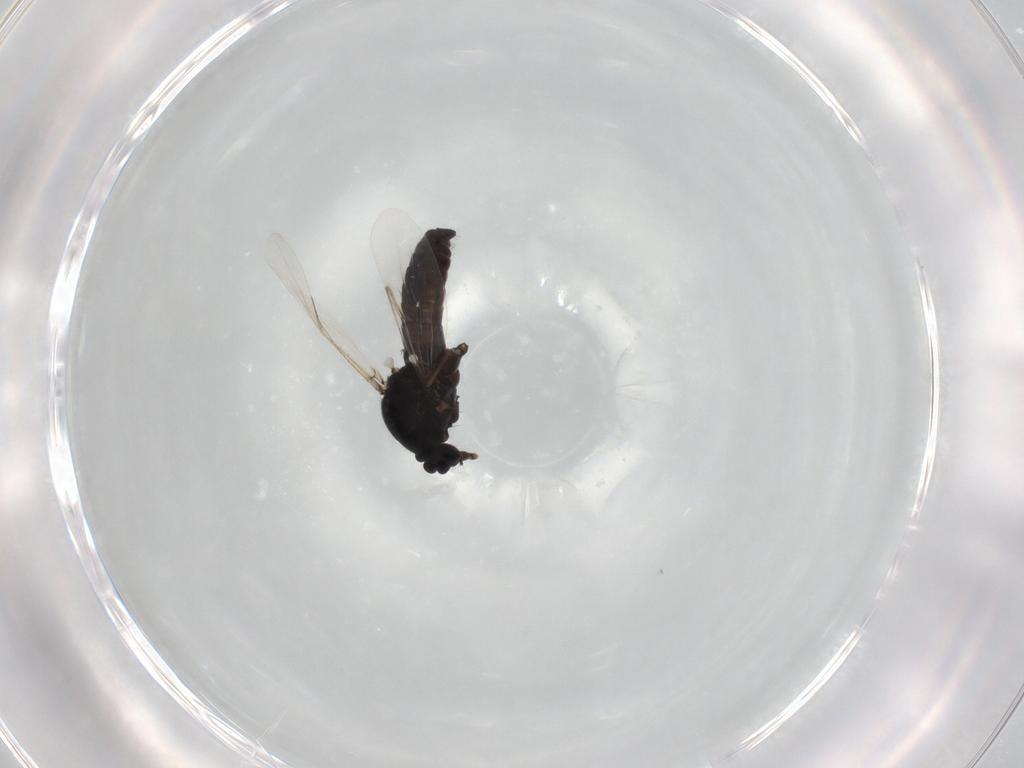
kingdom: Animalia
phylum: Arthropoda
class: Insecta
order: Diptera
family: Ceratopogonidae
